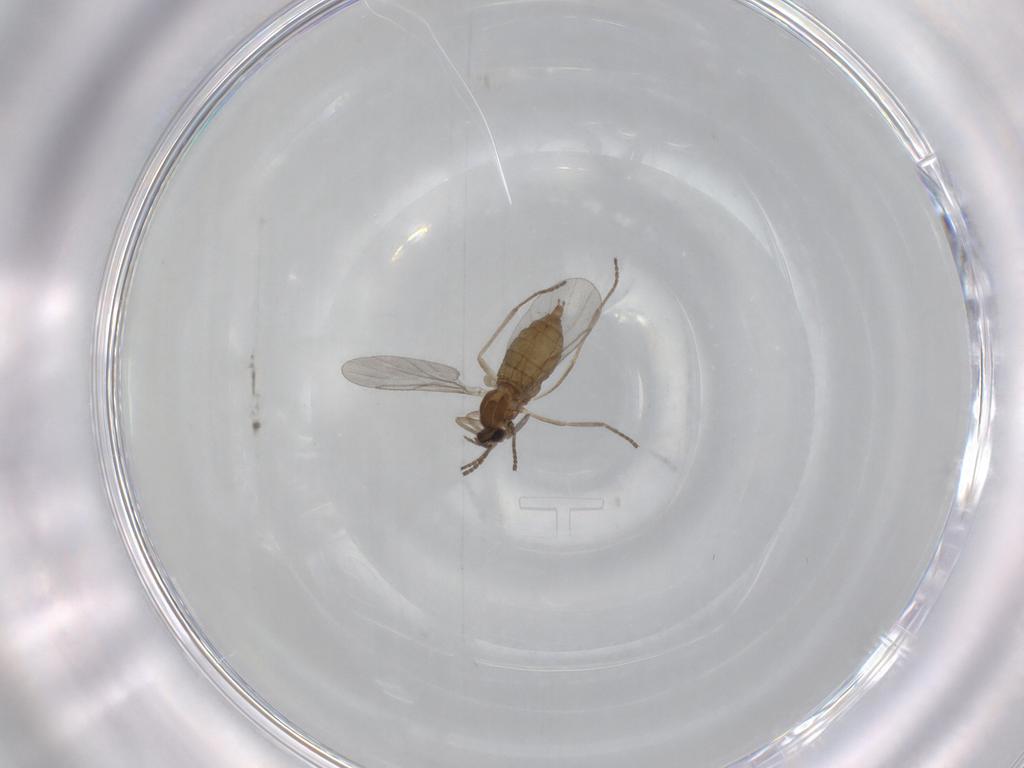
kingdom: Animalia
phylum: Arthropoda
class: Insecta
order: Diptera
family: Cecidomyiidae
